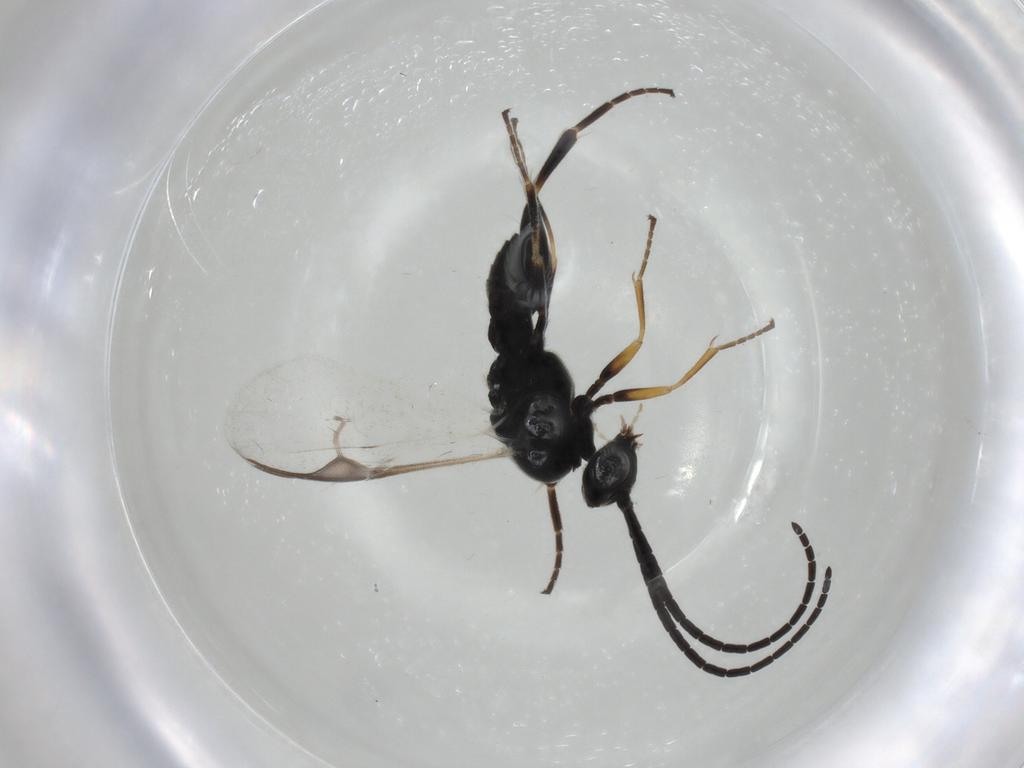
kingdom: Animalia
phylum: Arthropoda
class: Insecta
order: Hymenoptera
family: Braconidae
